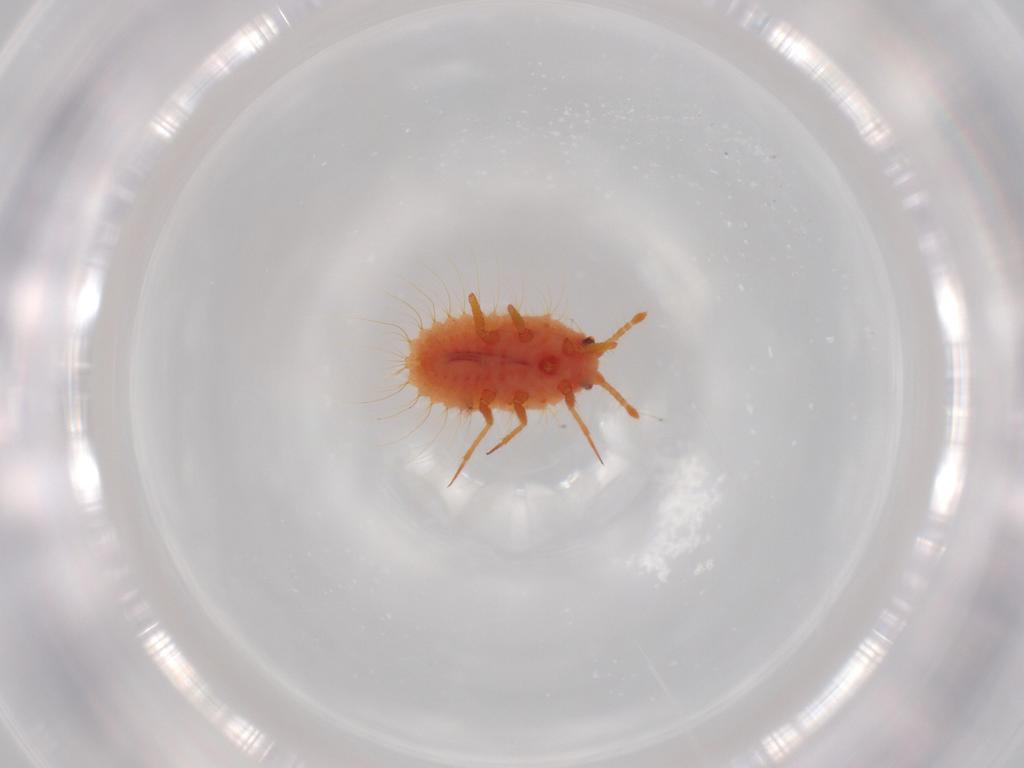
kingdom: Animalia
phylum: Arthropoda
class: Insecta
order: Hemiptera
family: Coccoidea_incertae_sedis
